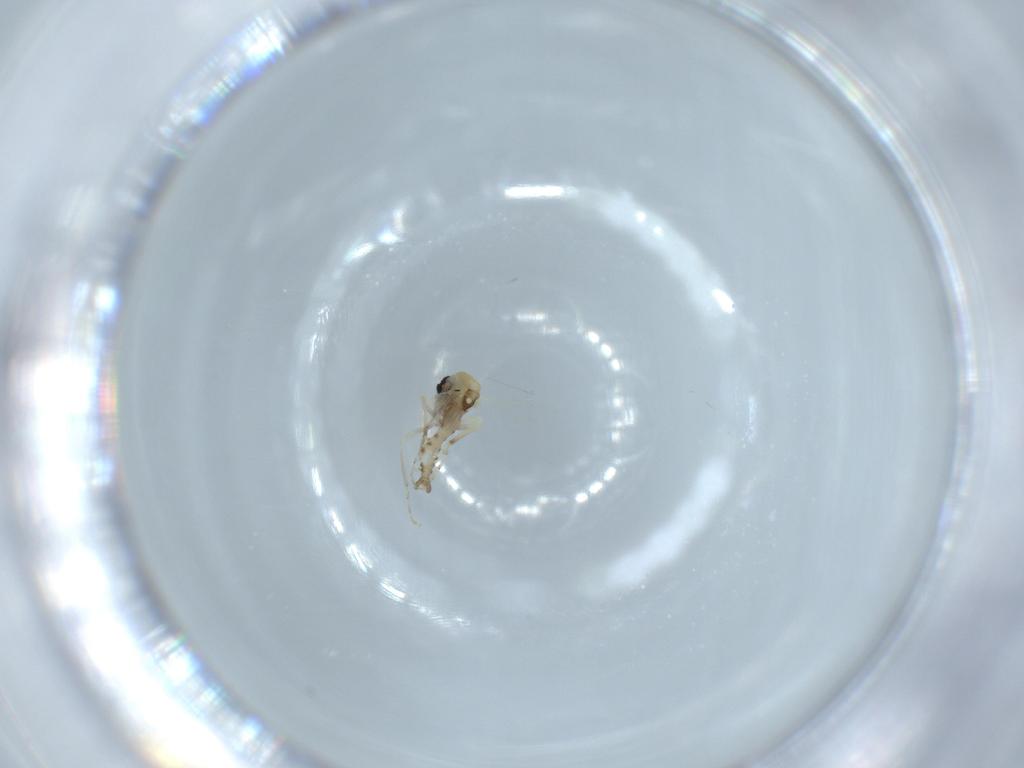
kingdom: Animalia
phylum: Arthropoda
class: Insecta
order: Diptera
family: Ceratopogonidae
